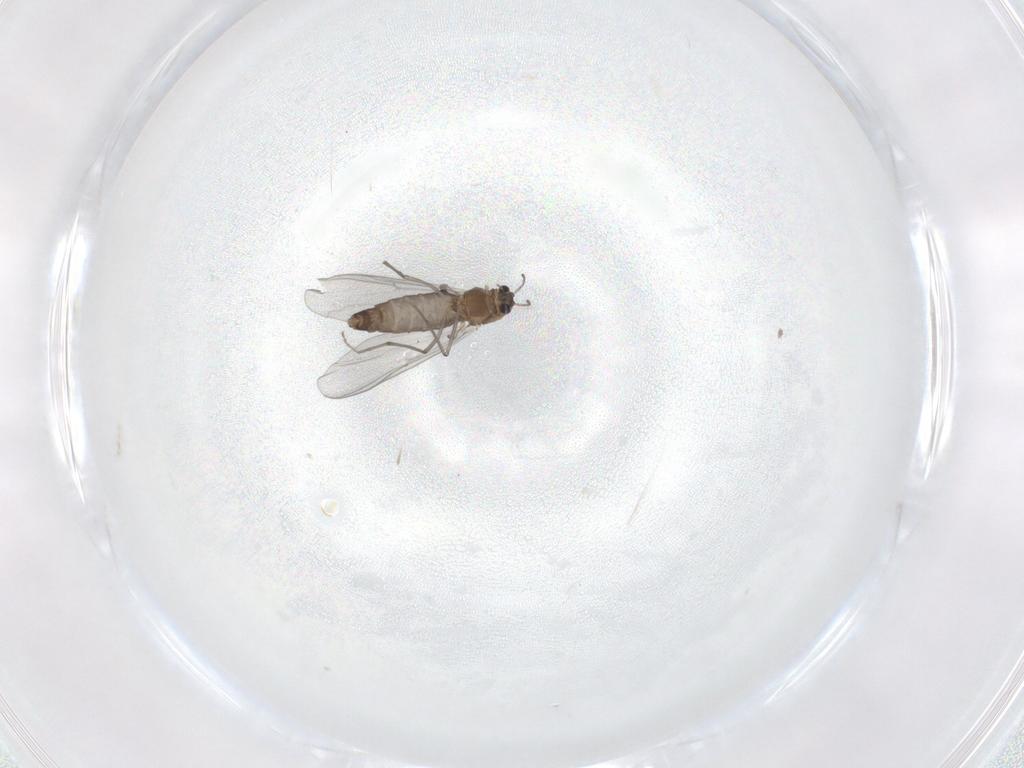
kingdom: Animalia
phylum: Arthropoda
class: Insecta
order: Diptera
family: Chironomidae
